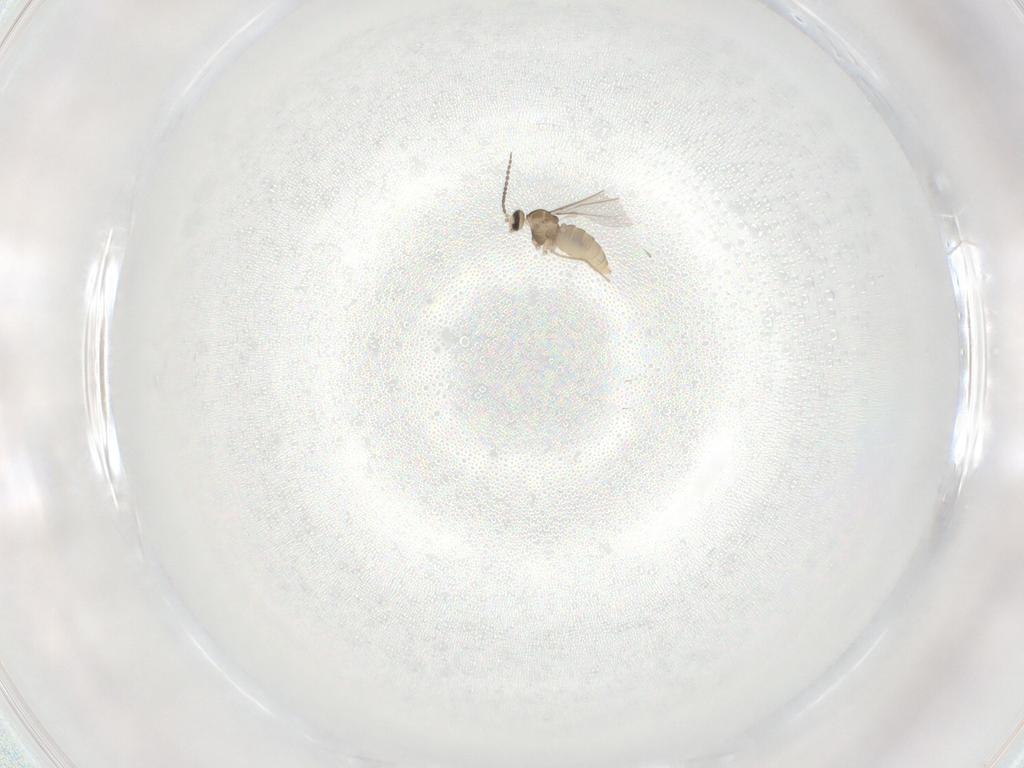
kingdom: Animalia
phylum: Arthropoda
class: Insecta
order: Diptera
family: Cecidomyiidae
